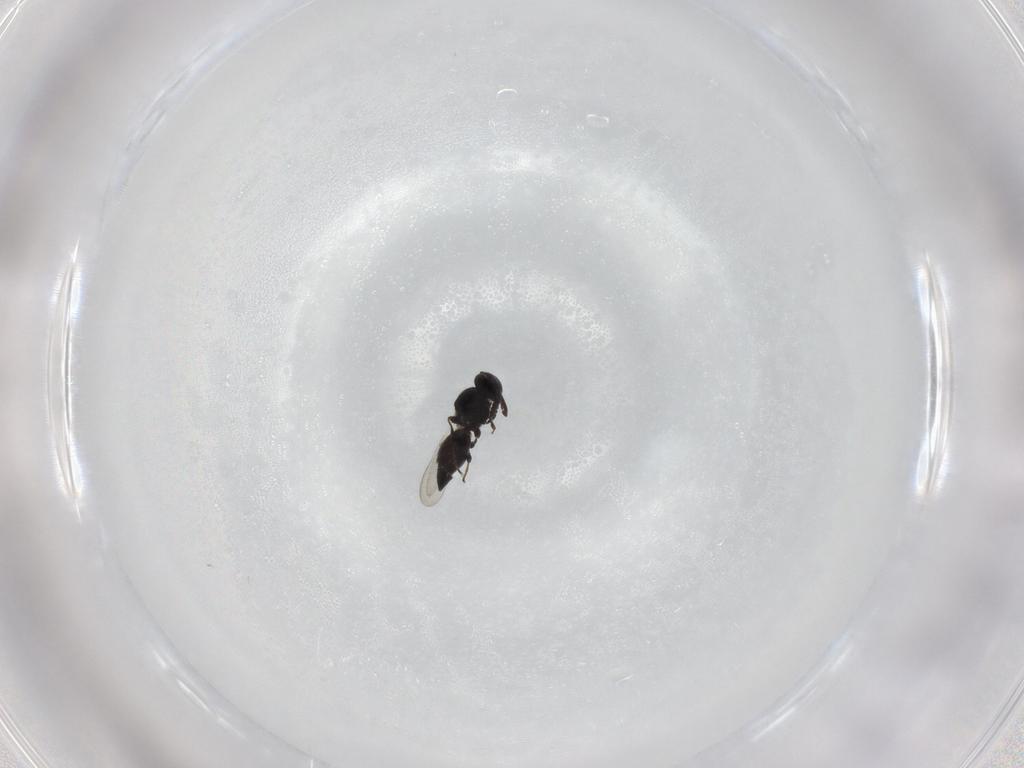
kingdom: Animalia
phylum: Arthropoda
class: Insecta
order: Hymenoptera
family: Platygastridae
